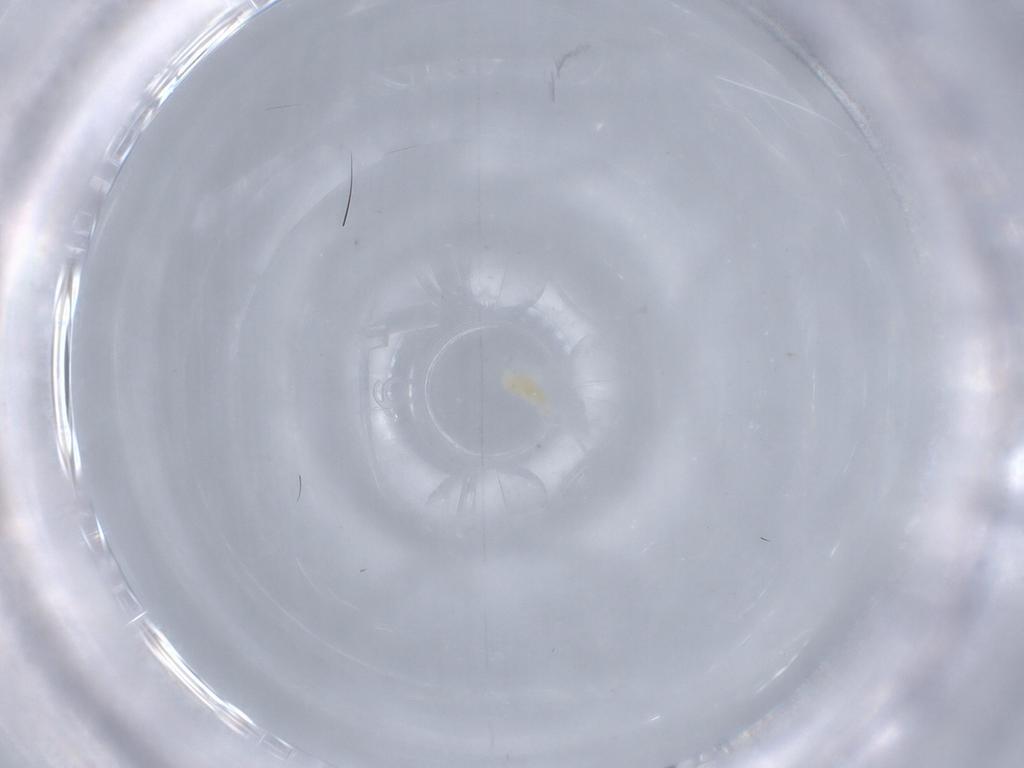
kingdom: Animalia
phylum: Arthropoda
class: Arachnida
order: Trombidiformes
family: Eupodidae
